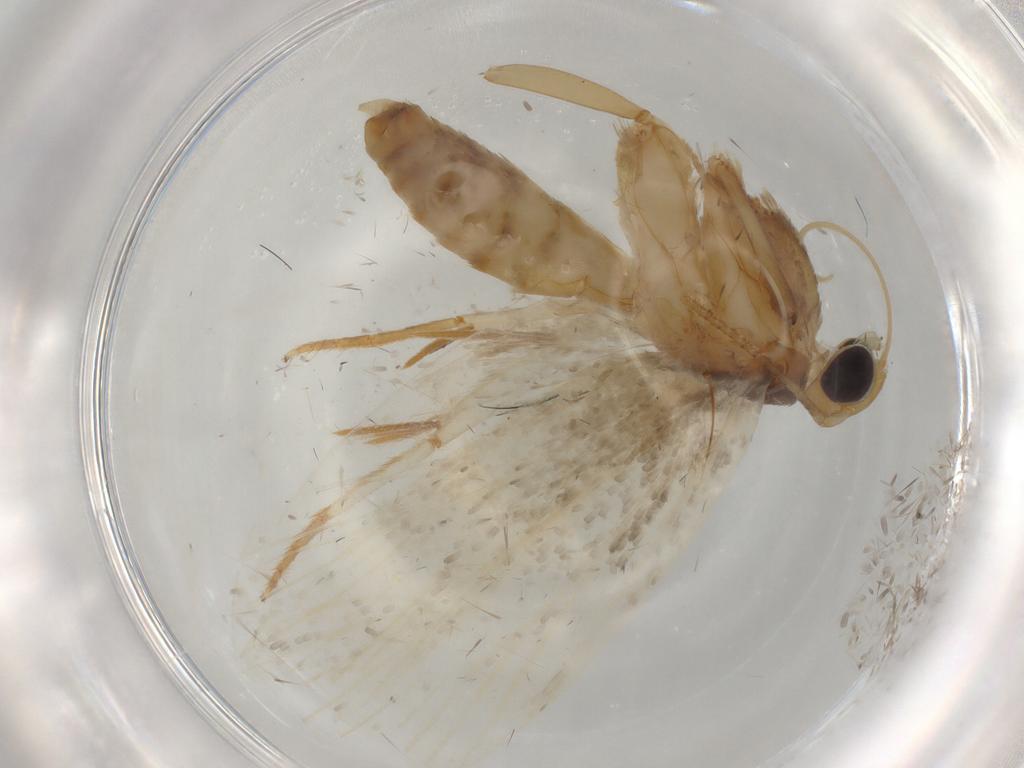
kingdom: Animalia
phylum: Arthropoda
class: Insecta
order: Lepidoptera
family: Oecophoridae
